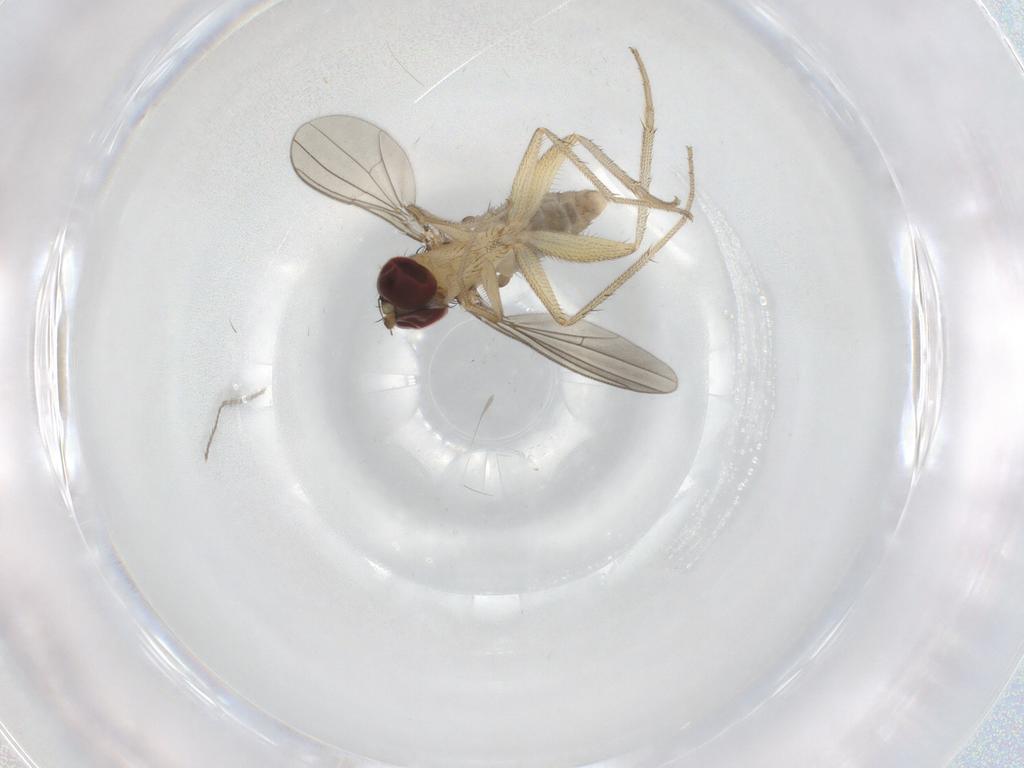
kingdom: Animalia
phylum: Arthropoda
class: Insecta
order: Diptera
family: Dolichopodidae
